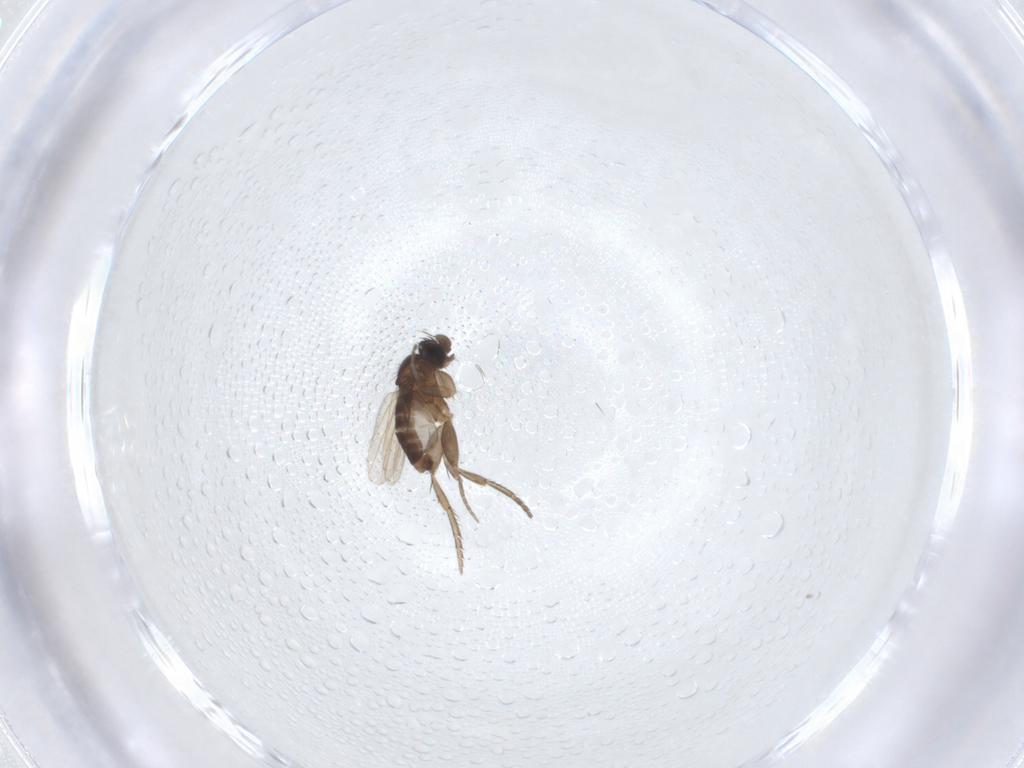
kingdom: Animalia
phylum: Arthropoda
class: Insecta
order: Diptera
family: Phoridae
